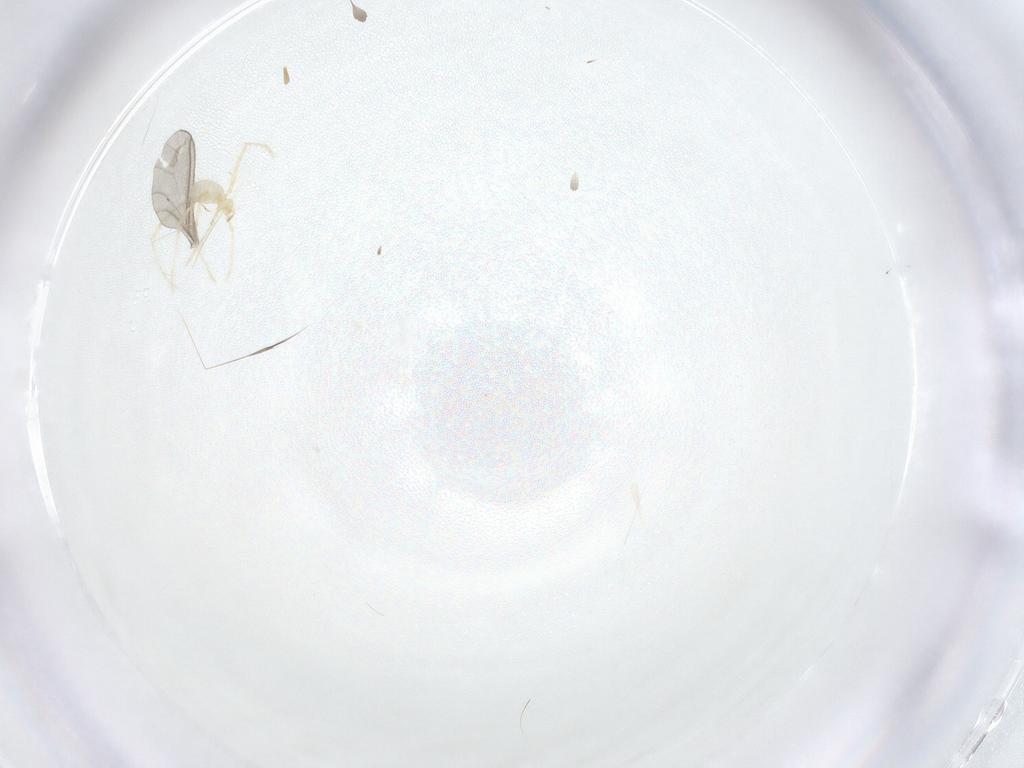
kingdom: Animalia
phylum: Arthropoda
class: Arachnida
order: Trombidiformes
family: Erythraeidae
